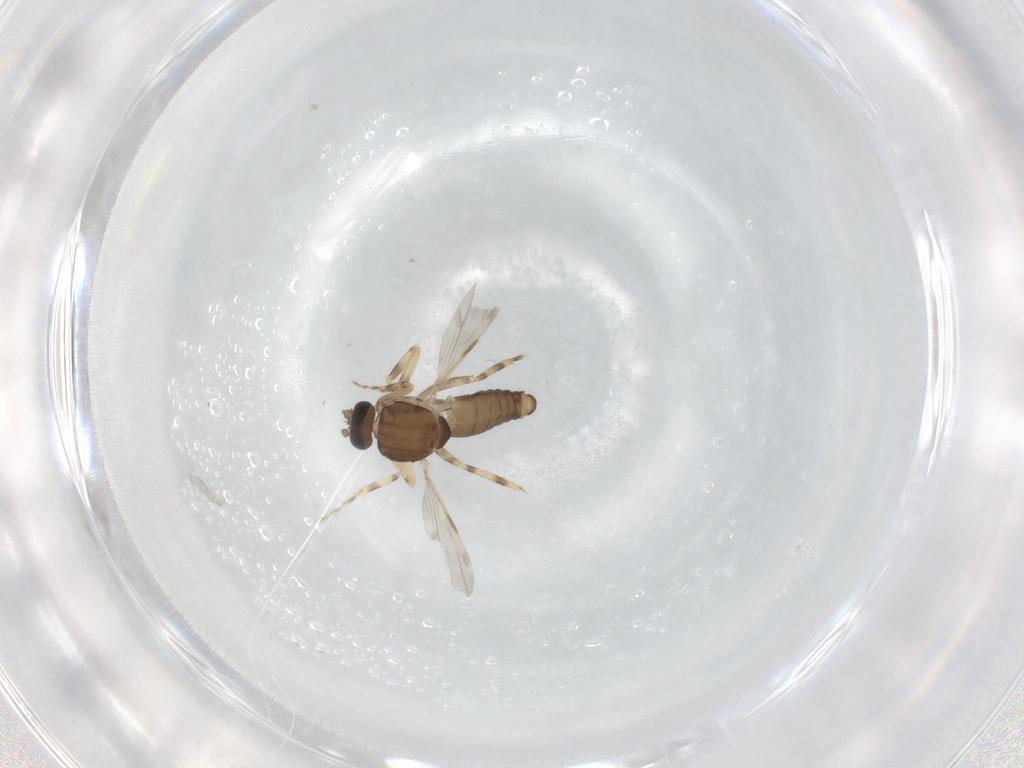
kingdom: Animalia
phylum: Arthropoda
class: Insecta
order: Diptera
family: Ceratopogonidae
